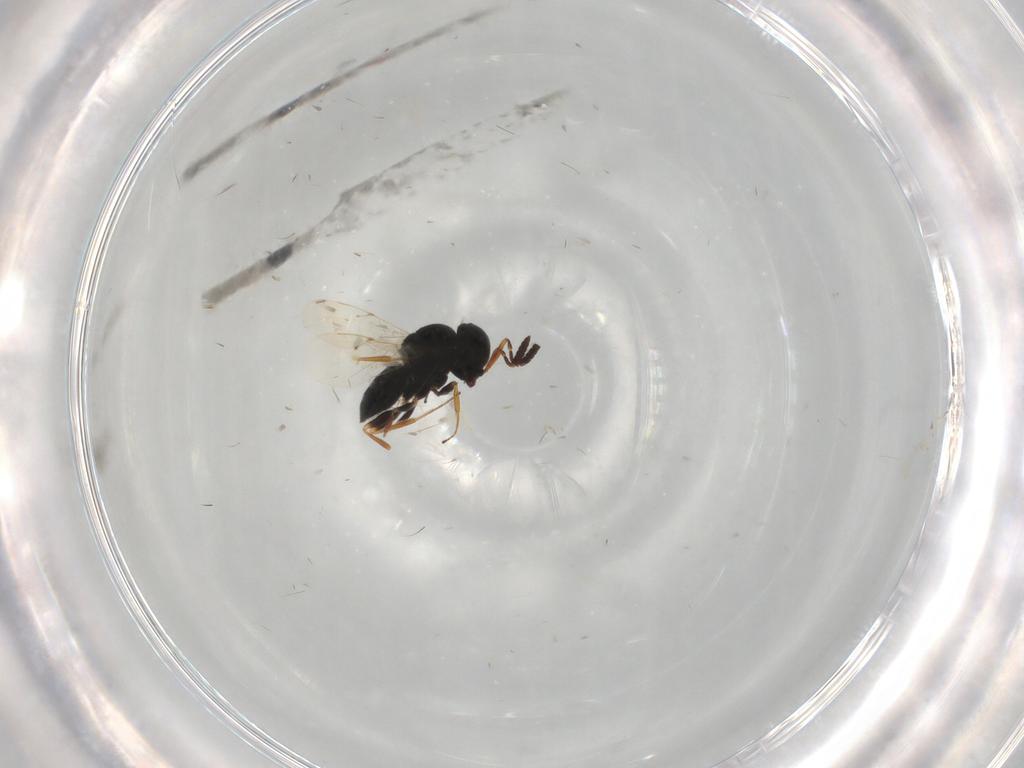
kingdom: Animalia
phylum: Arthropoda
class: Insecta
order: Coleoptera
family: Curculionidae
